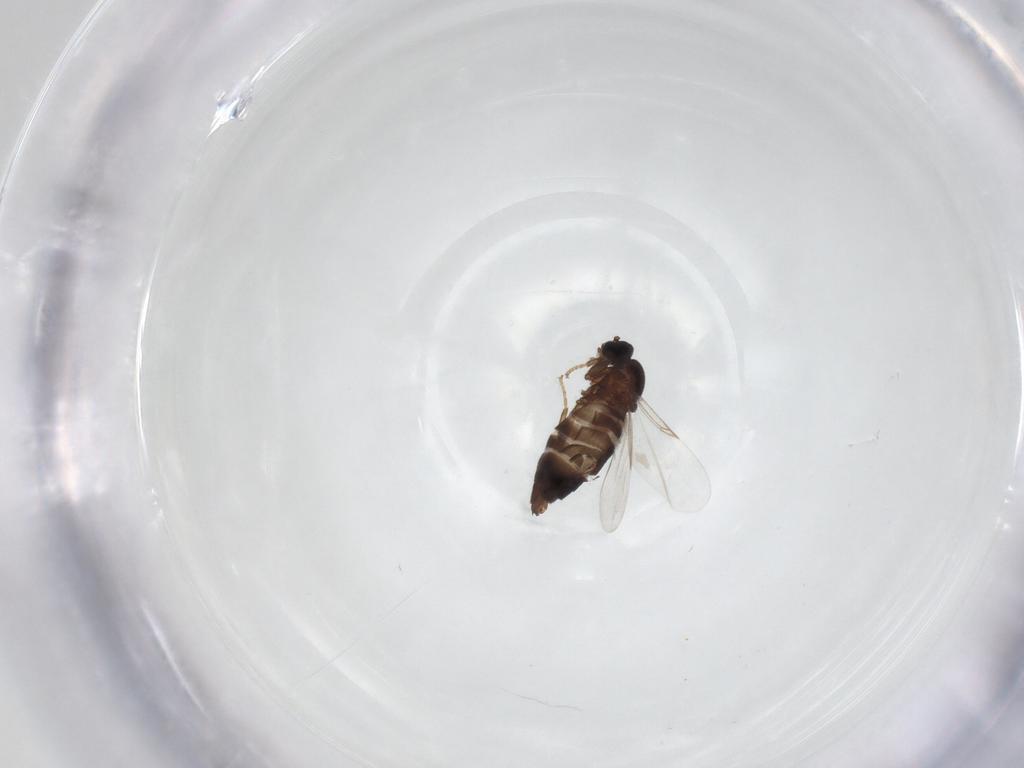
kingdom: Animalia
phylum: Arthropoda
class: Insecta
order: Diptera
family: Scatopsidae
